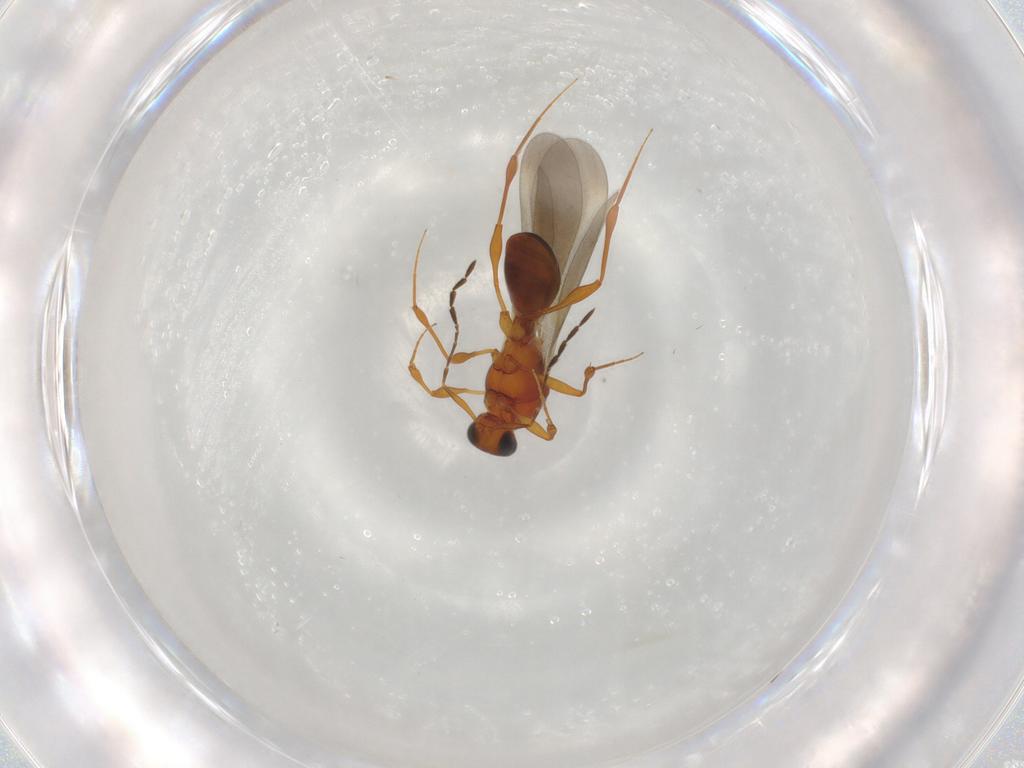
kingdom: Animalia
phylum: Arthropoda
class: Insecta
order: Hymenoptera
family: Platygastridae
